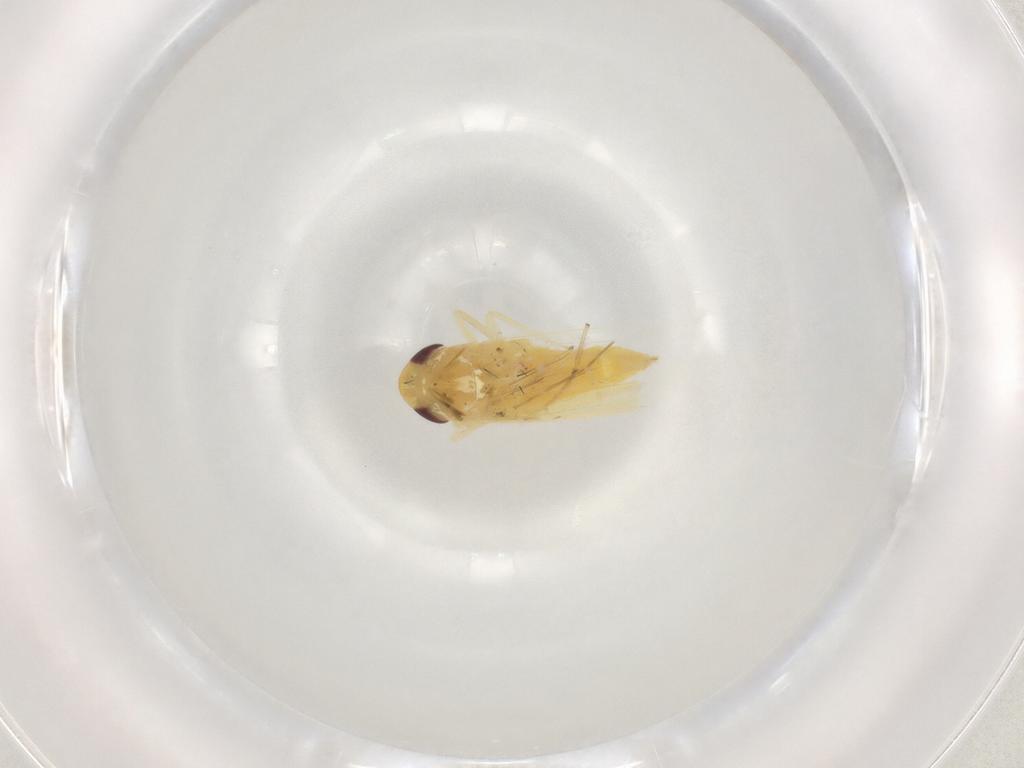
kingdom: Animalia
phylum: Arthropoda
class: Insecta
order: Hemiptera
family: Cicadellidae
